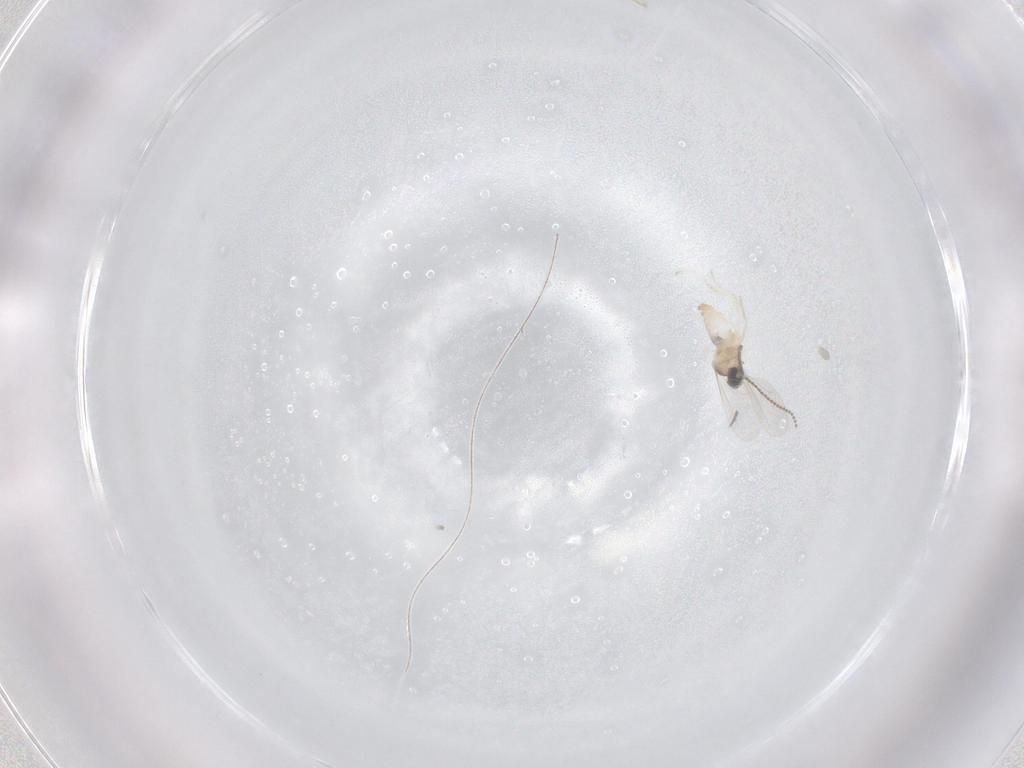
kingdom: Animalia
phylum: Arthropoda
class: Insecta
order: Diptera
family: Cecidomyiidae
